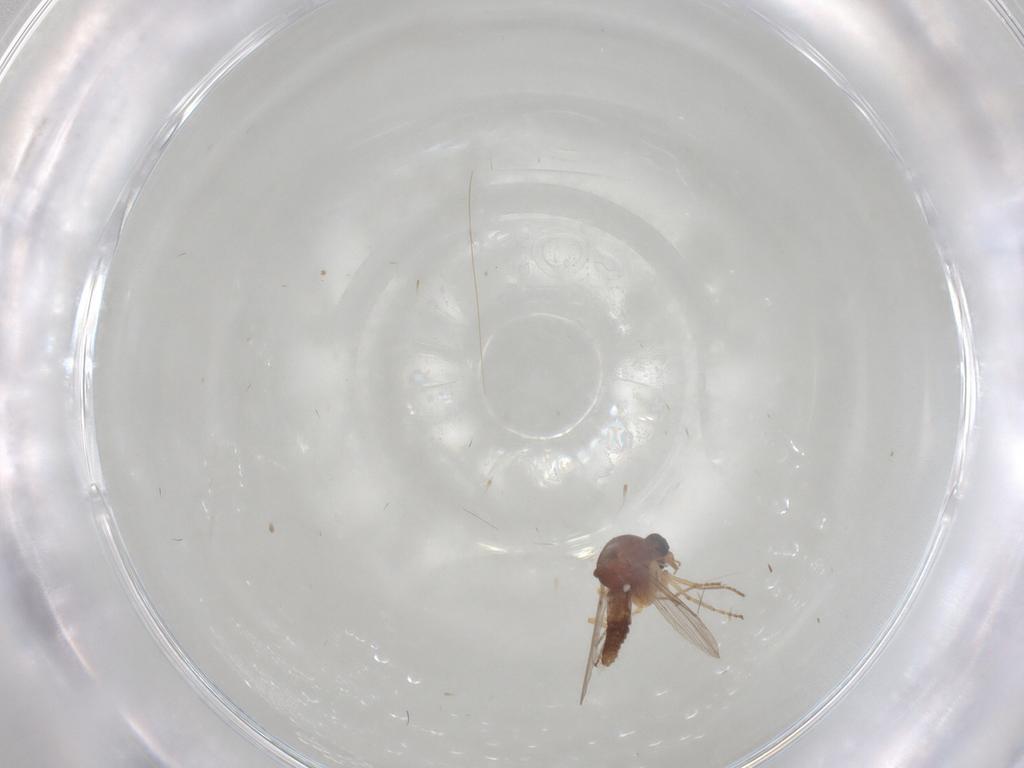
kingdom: Animalia
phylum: Arthropoda
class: Insecta
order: Diptera
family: Ceratopogonidae
